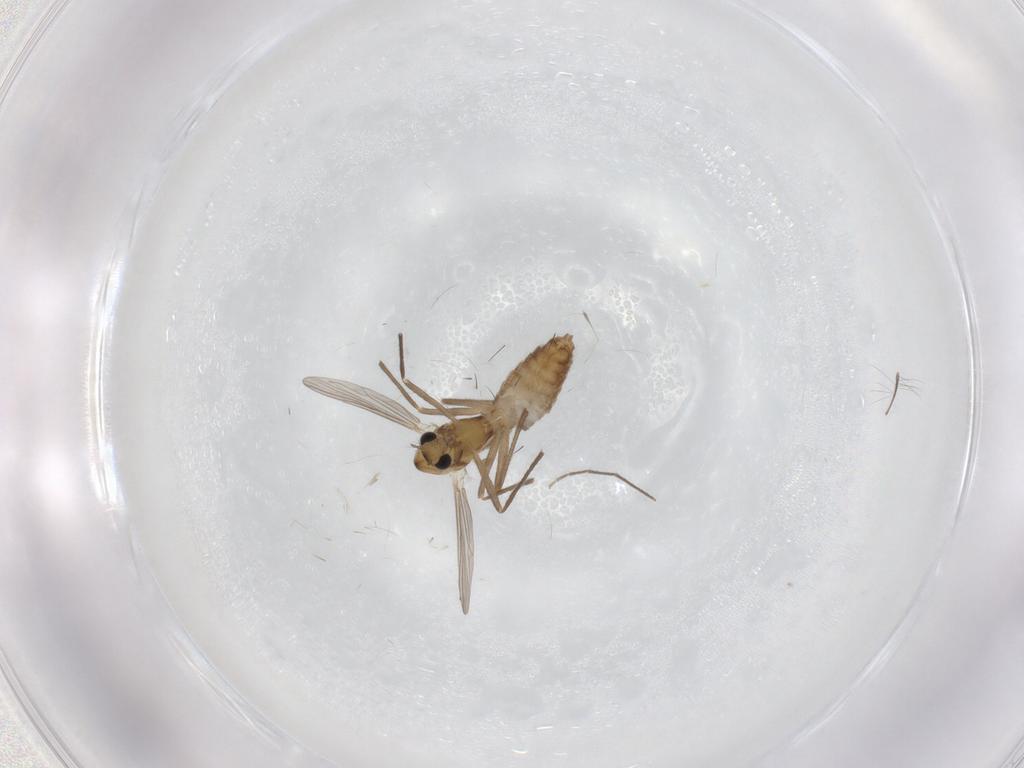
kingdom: Animalia
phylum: Arthropoda
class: Insecta
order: Diptera
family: Chironomidae
